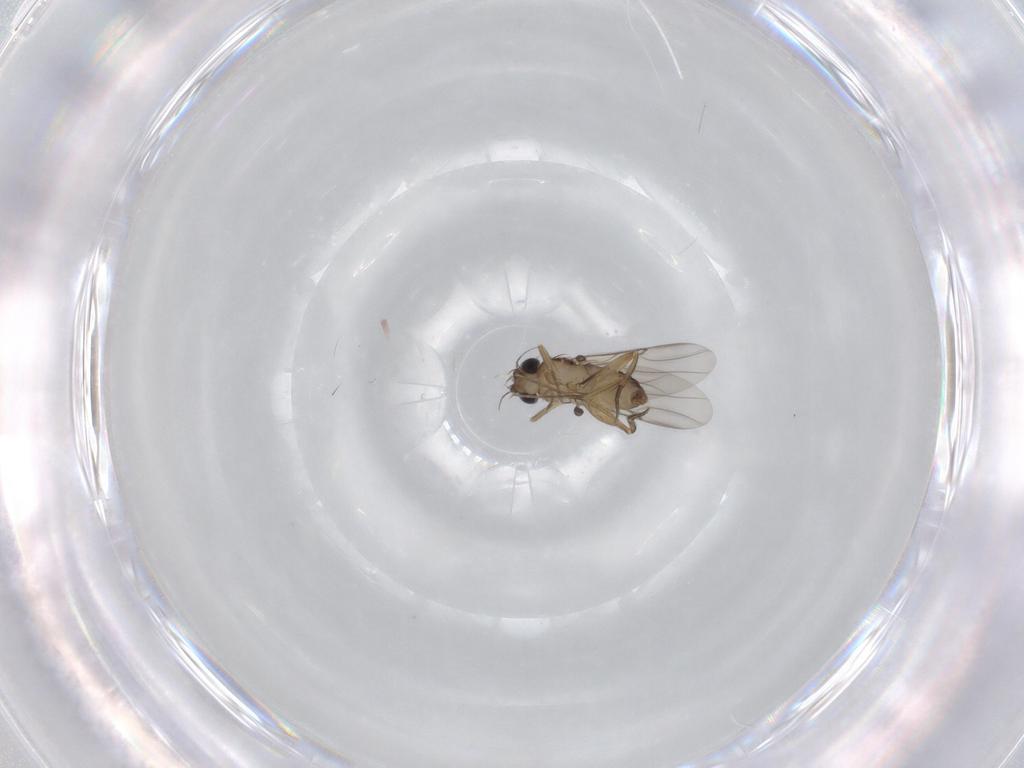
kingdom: Animalia
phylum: Arthropoda
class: Insecta
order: Diptera
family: Phoridae
